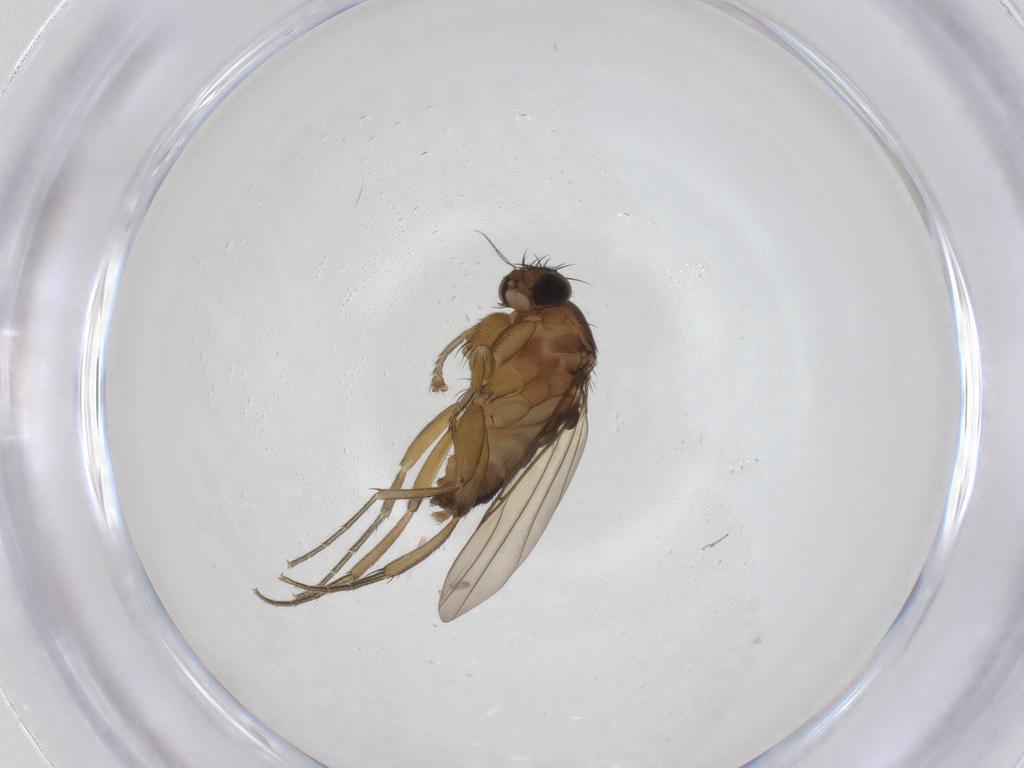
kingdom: Animalia
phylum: Arthropoda
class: Insecta
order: Diptera
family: Phoridae
